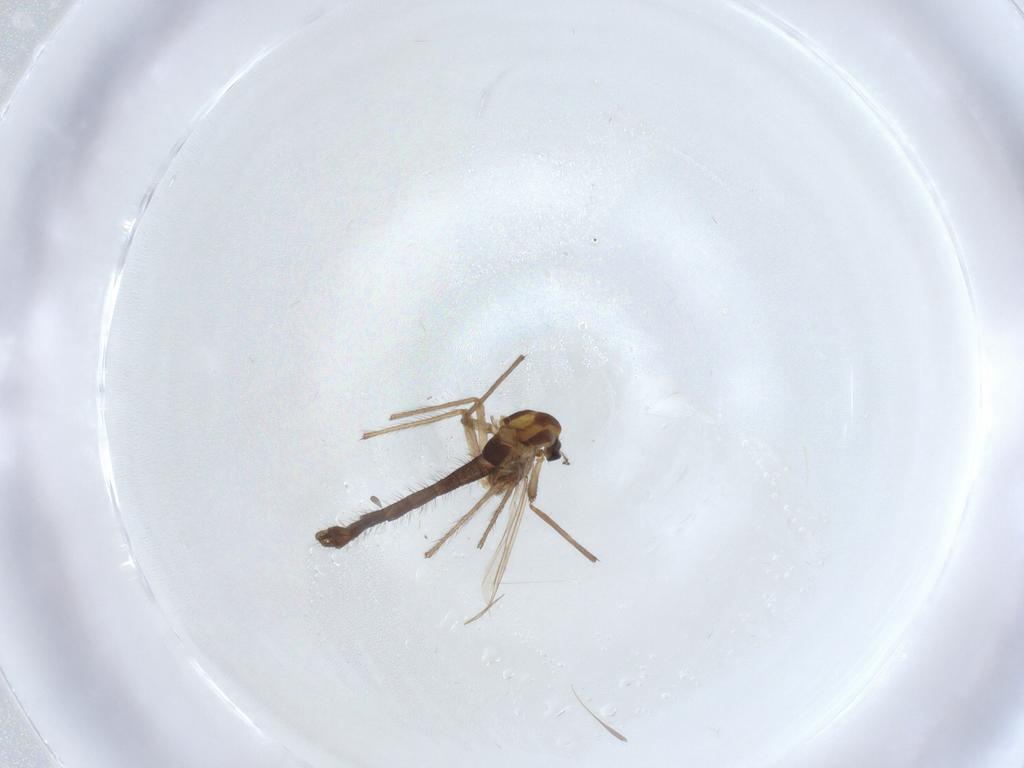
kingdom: Animalia
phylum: Arthropoda
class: Insecta
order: Diptera
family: Chironomidae
